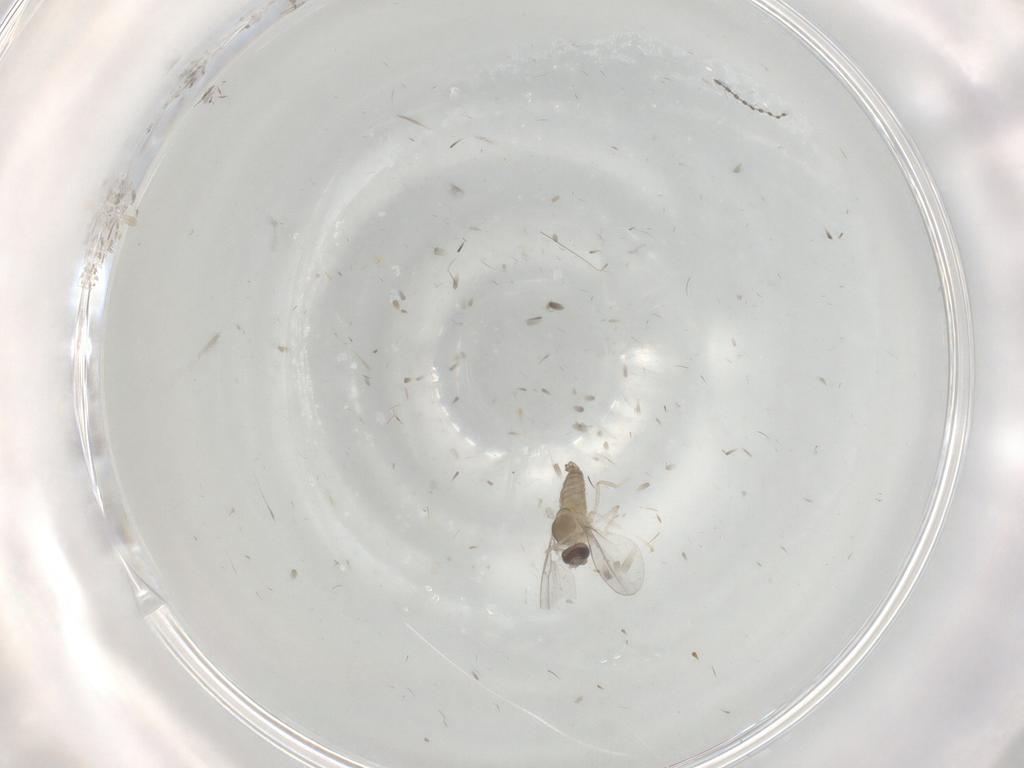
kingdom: Animalia
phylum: Arthropoda
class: Insecta
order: Diptera
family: Cecidomyiidae
